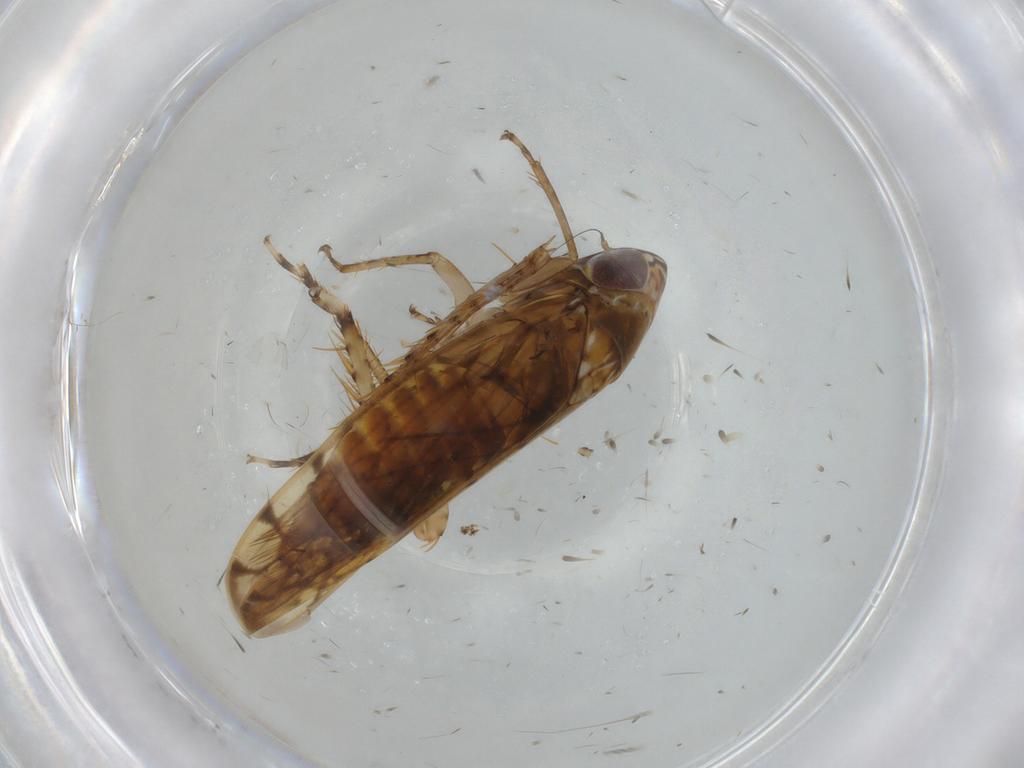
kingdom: Animalia
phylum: Arthropoda
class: Insecta
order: Hemiptera
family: Cicadellidae
